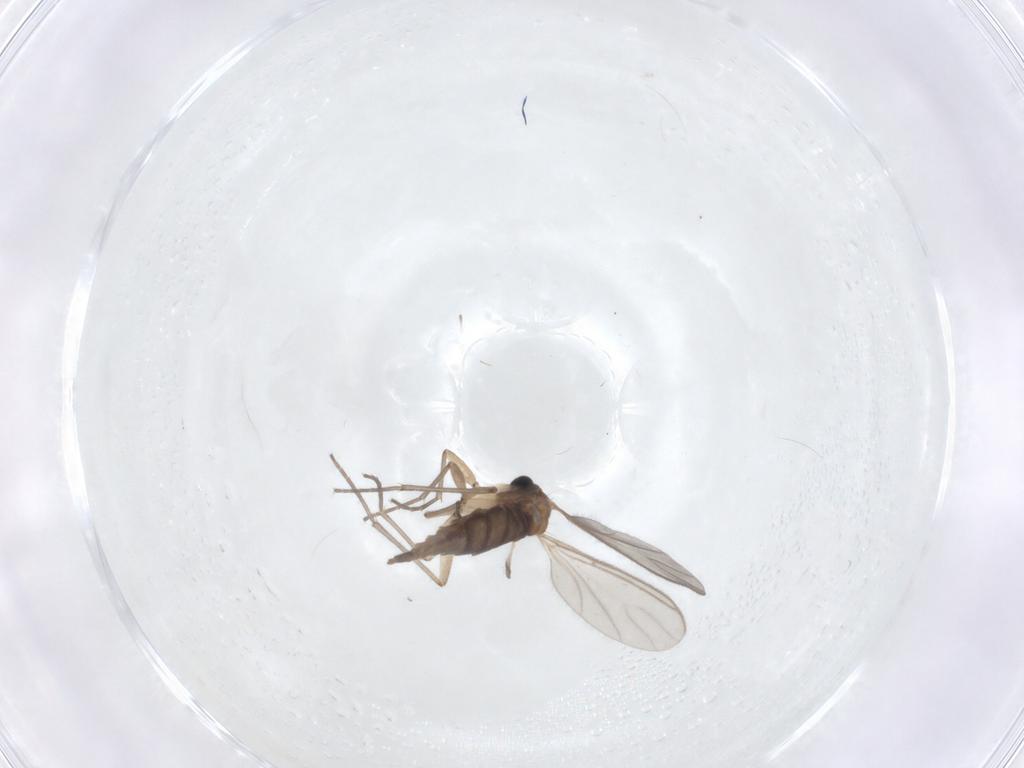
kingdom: Animalia
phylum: Arthropoda
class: Insecta
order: Diptera
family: Sciaridae
